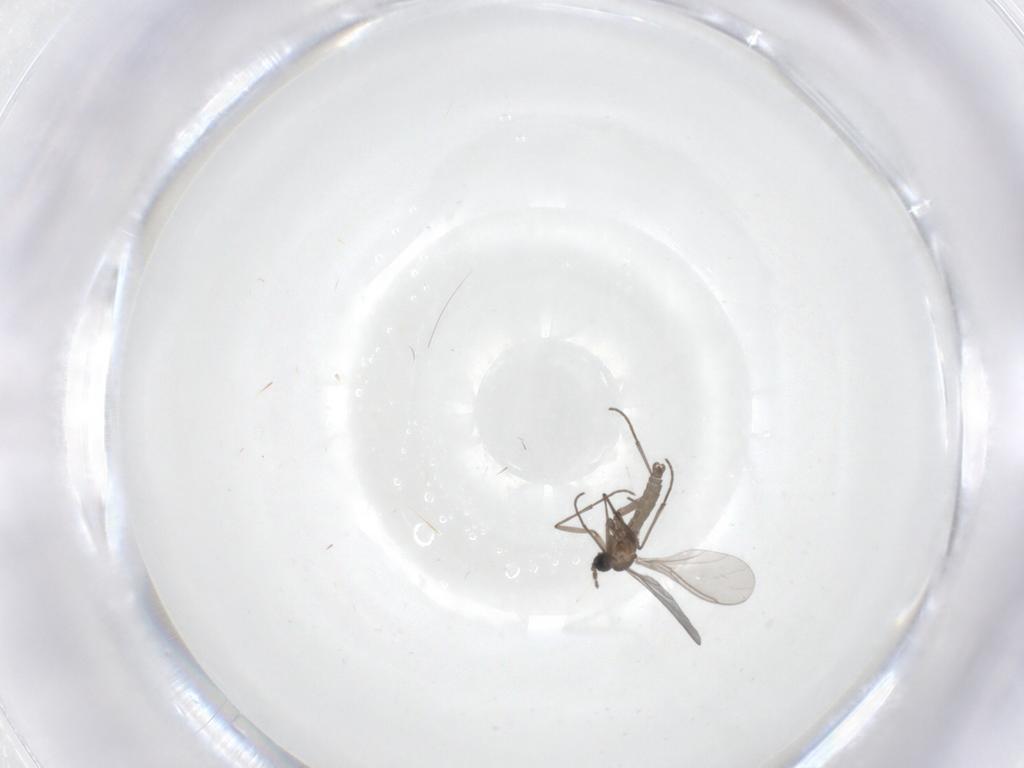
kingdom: Animalia
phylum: Arthropoda
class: Insecta
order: Diptera
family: Sciaridae
